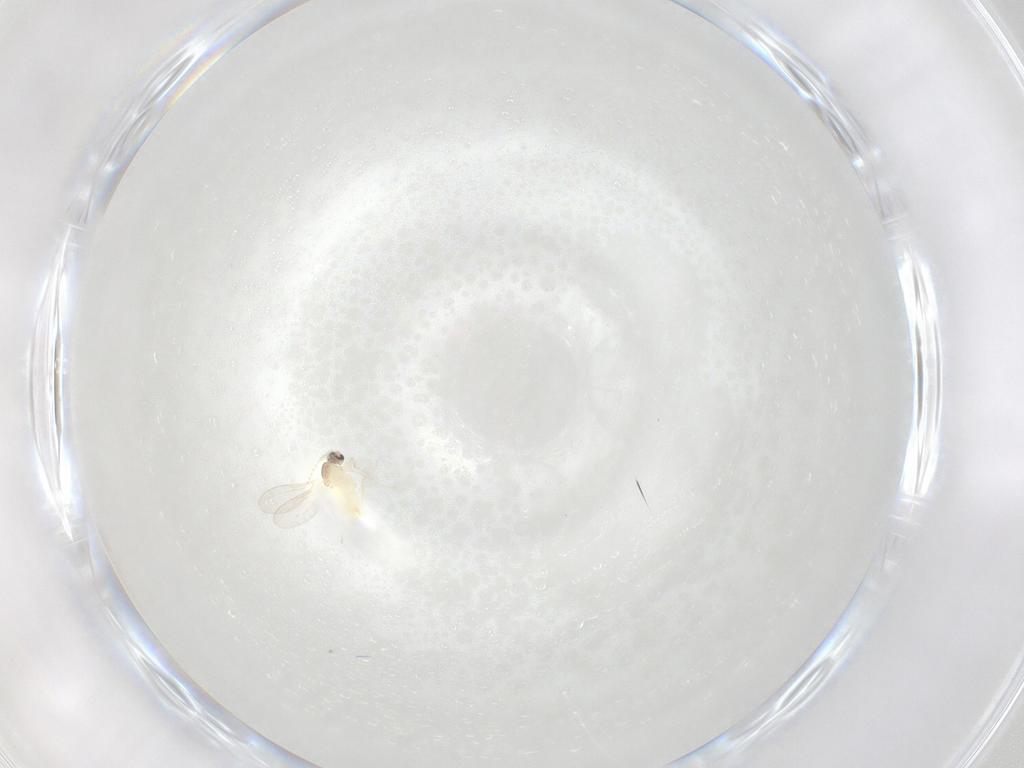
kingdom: Animalia
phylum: Arthropoda
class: Insecta
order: Diptera
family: Cecidomyiidae
